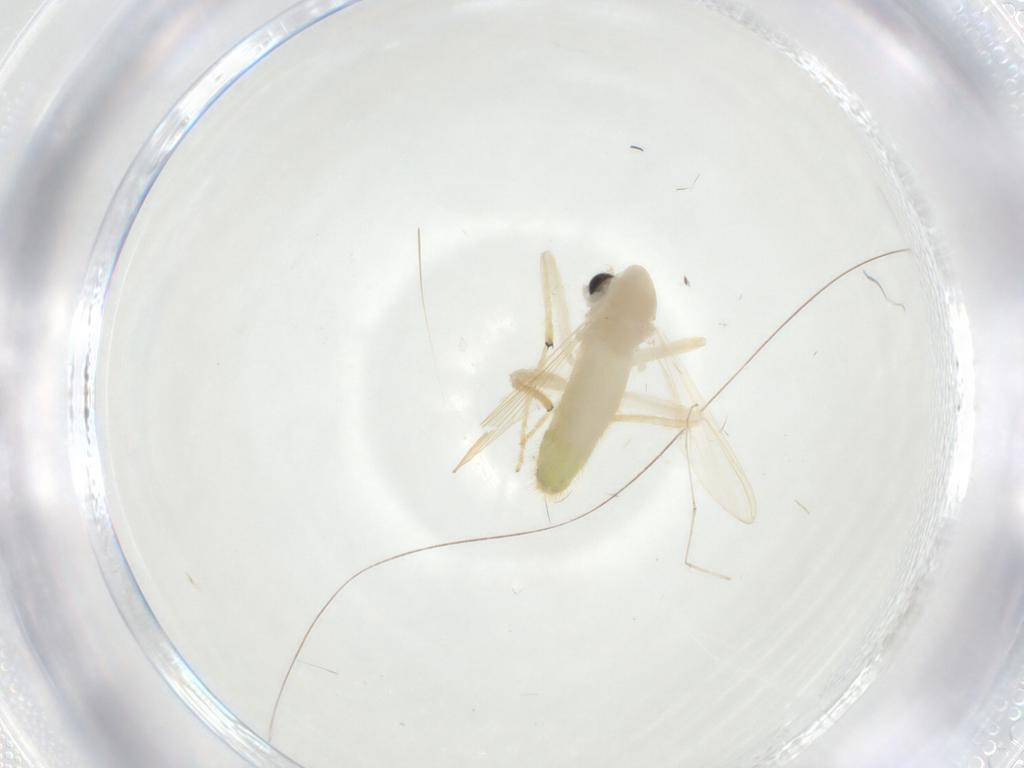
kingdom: Animalia
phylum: Arthropoda
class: Insecta
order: Diptera
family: Chironomidae
